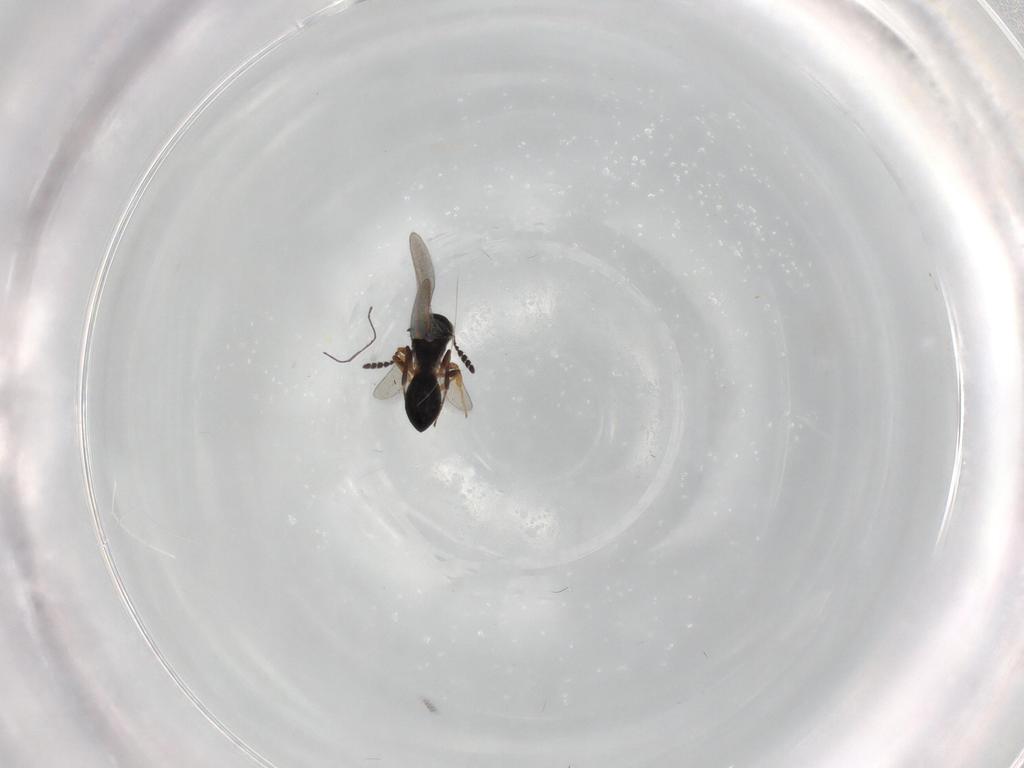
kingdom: Animalia
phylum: Arthropoda
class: Insecta
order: Hymenoptera
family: Platygastridae
